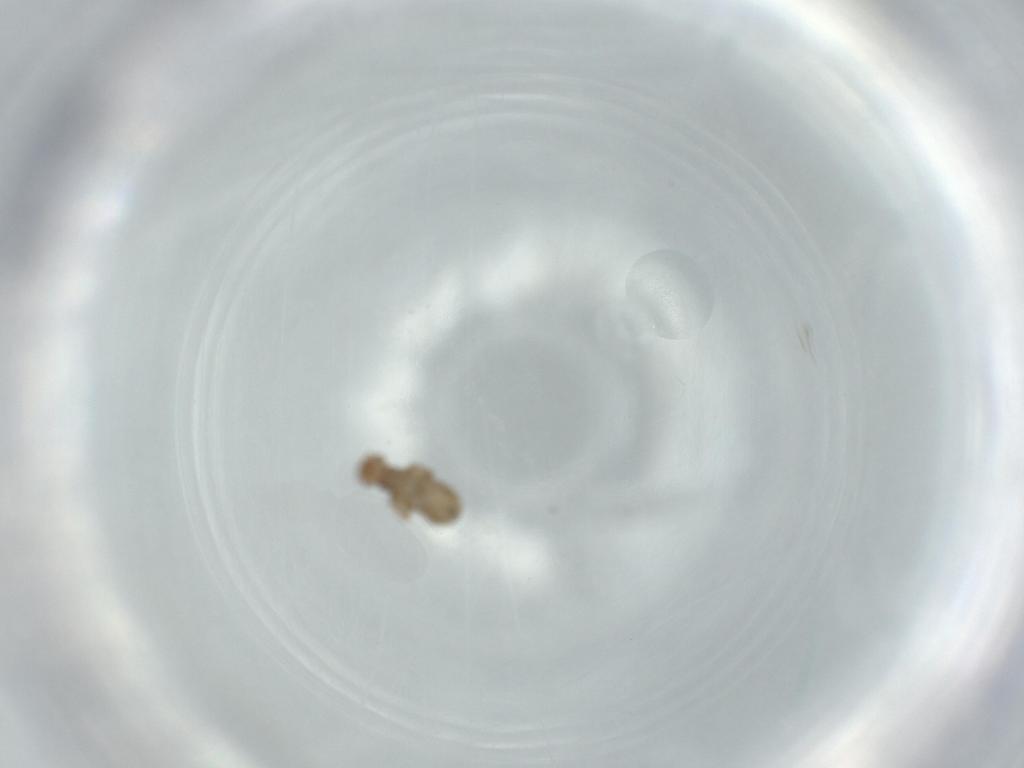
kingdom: Animalia
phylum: Arthropoda
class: Insecta
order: Psocodea
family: Liposcelididae
